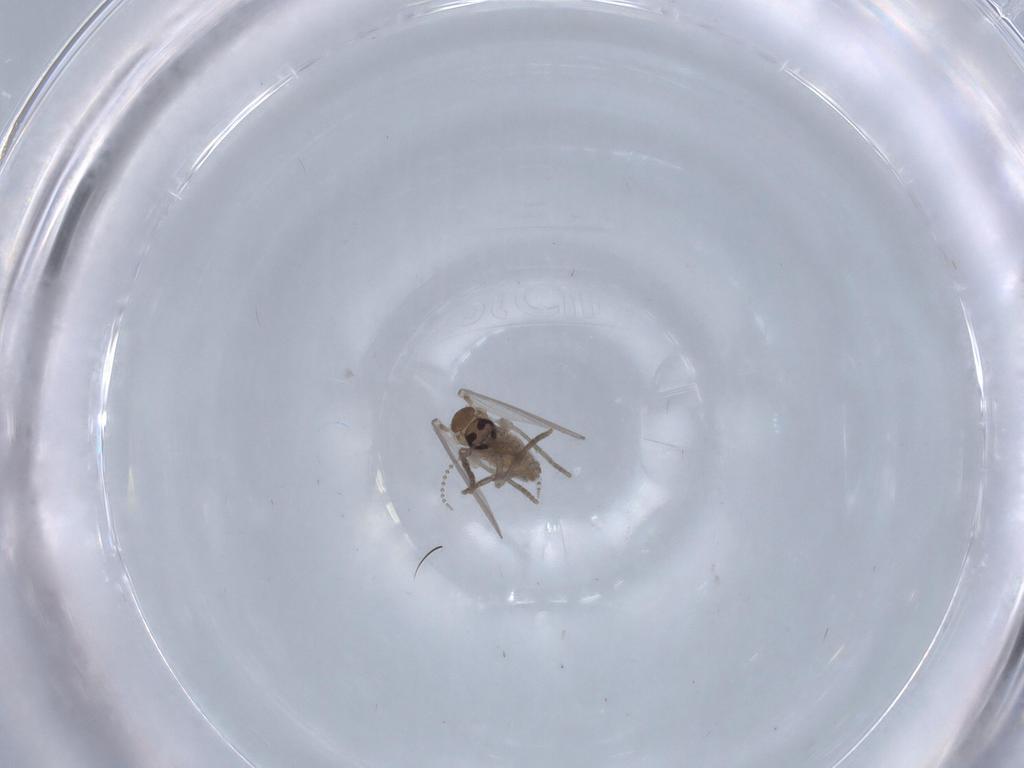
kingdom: Animalia
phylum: Arthropoda
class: Insecta
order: Diptera
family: Psychodidae
